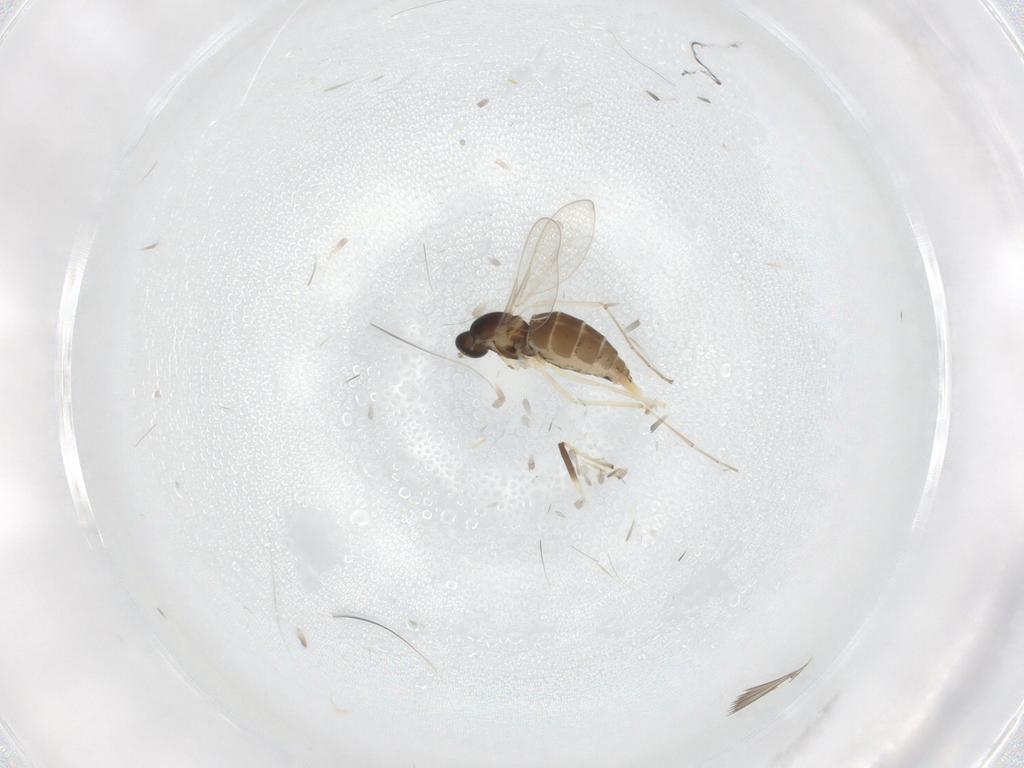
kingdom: Animalia
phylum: Arthropoda
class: Insecta
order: Diptera
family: Cecidomyiidae
